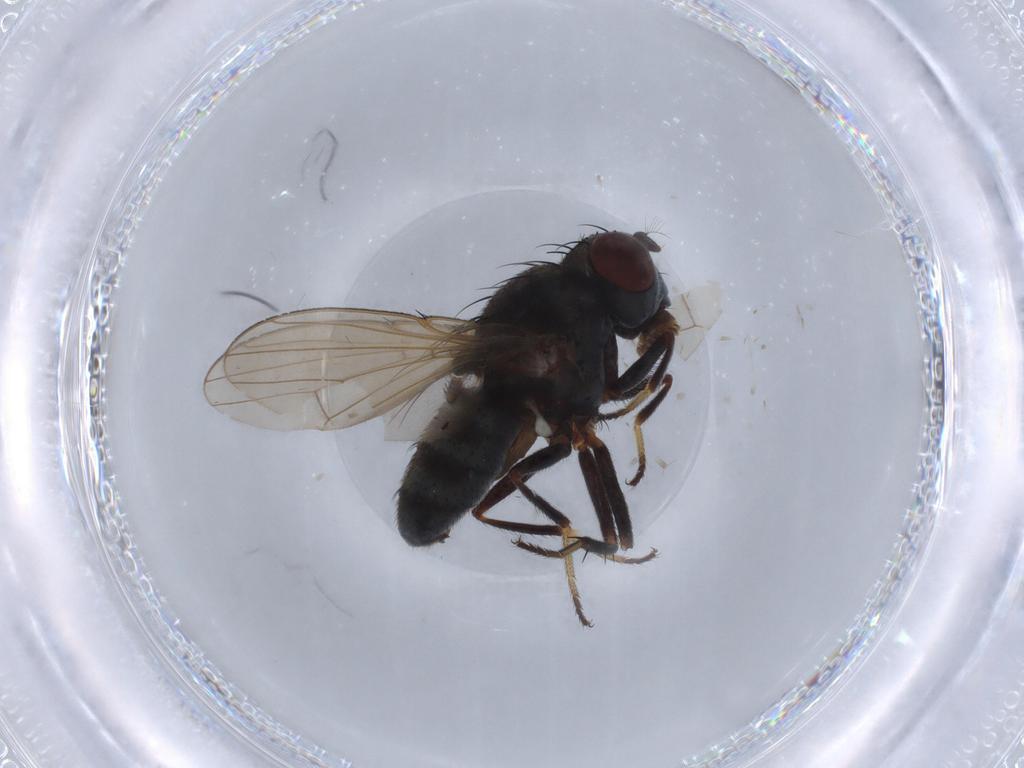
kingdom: Animalia
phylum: Arthropoda
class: Insecta
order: Diptera
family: Ephydridae
